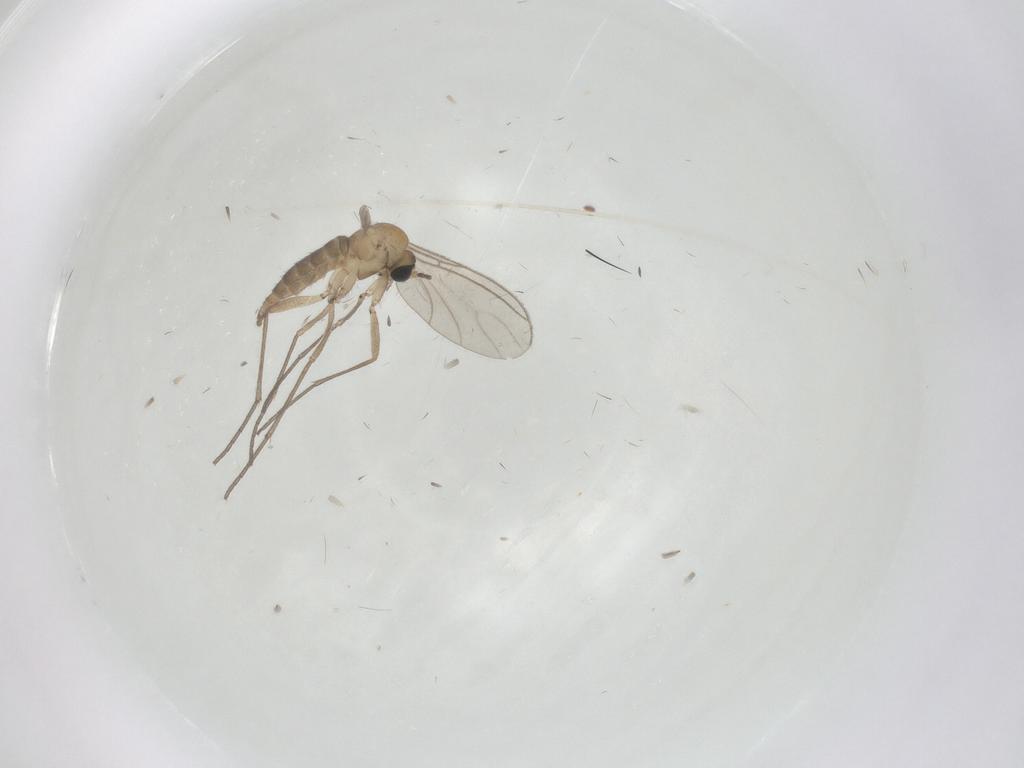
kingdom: Animalia
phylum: Arthropoda
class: Insecta
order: Diptera
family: Sciaridae
